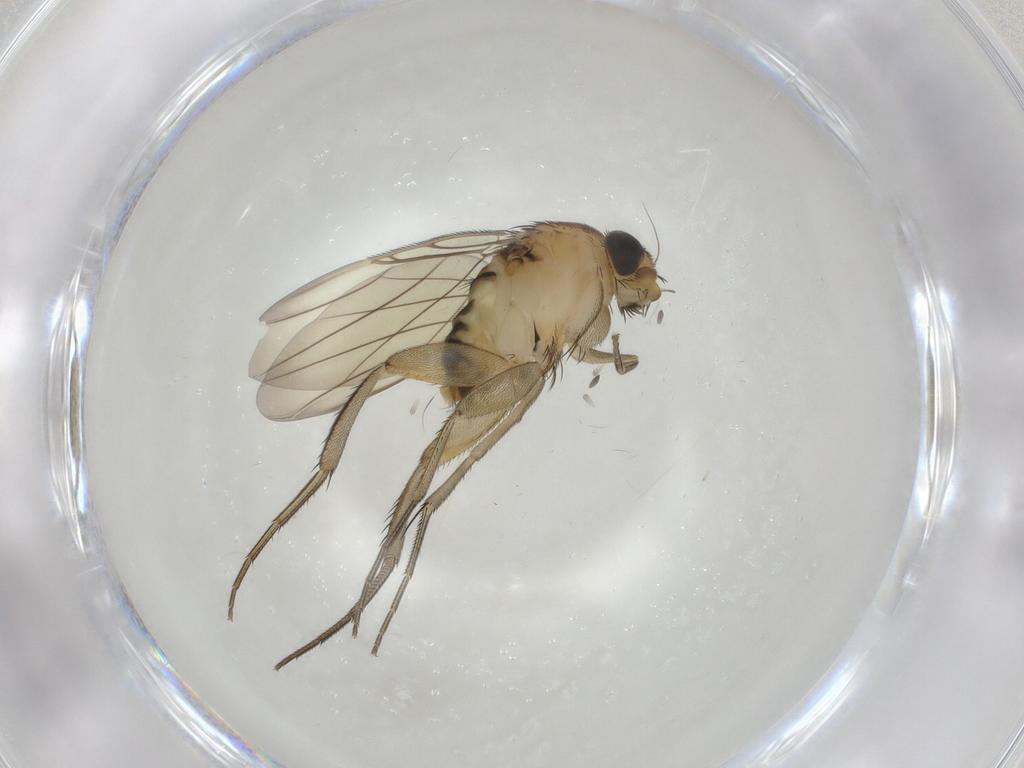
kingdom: Animalia
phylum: Arthropoda
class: Insecta
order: Diptera
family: Phoridae
